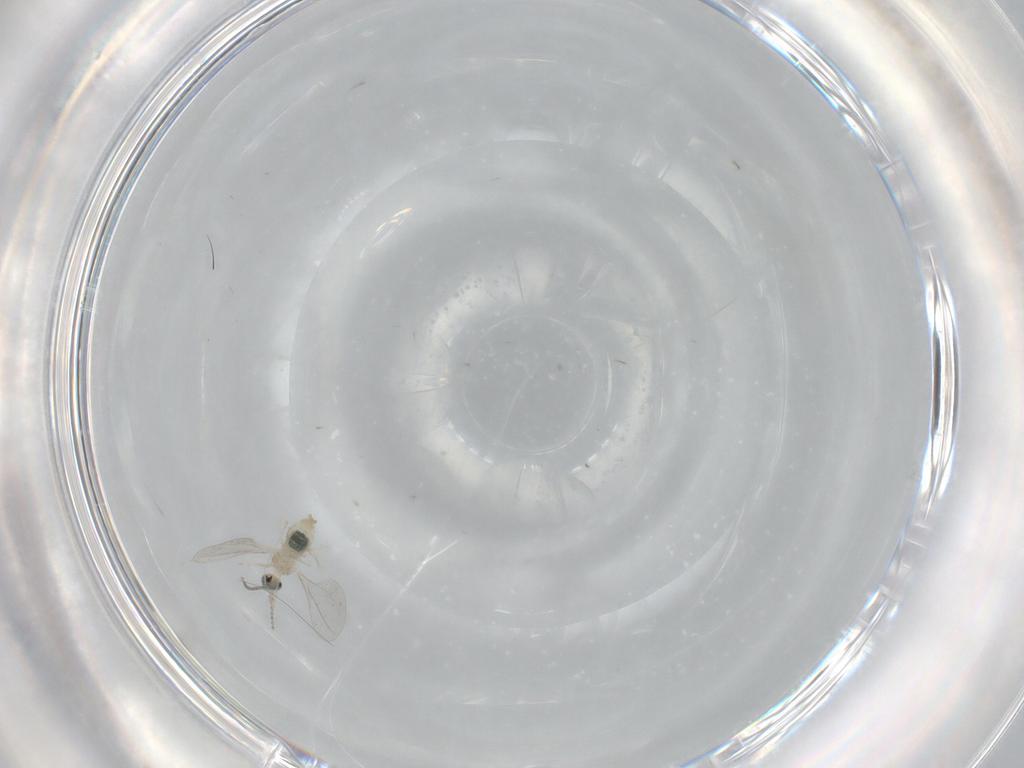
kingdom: Animalia
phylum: Arthropoda
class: Insecta
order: Diptera
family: Cecidomyiidae
